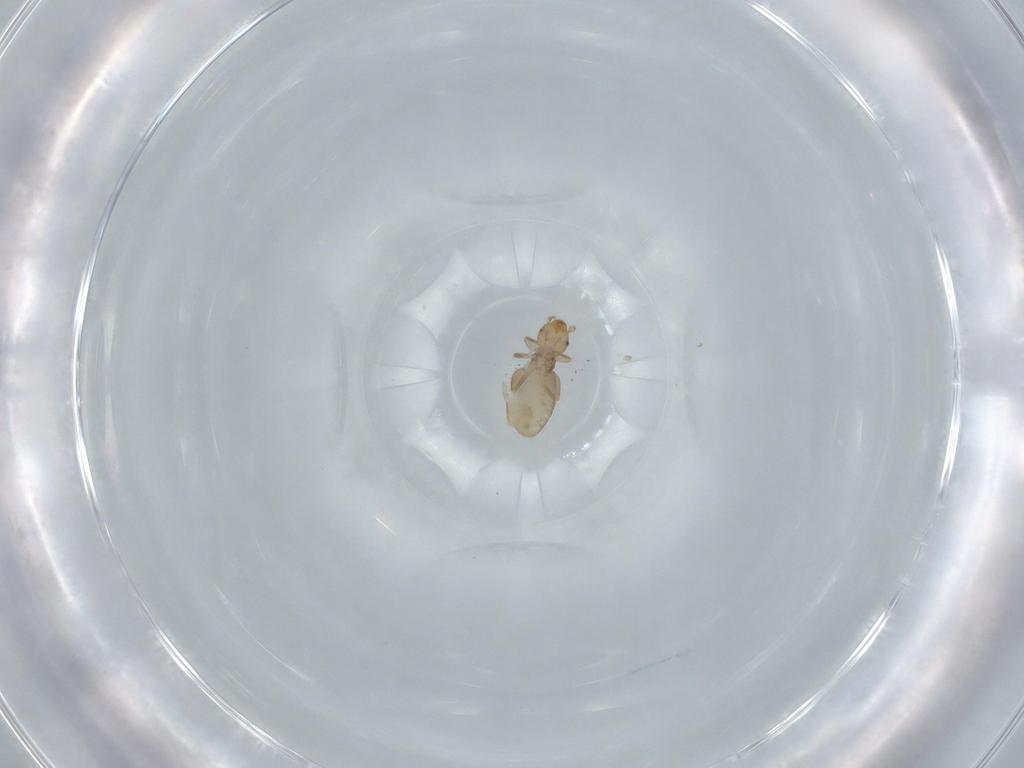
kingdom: Animalia
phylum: Arthropoda
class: Insecta
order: Psocodea
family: Liposcelididae
